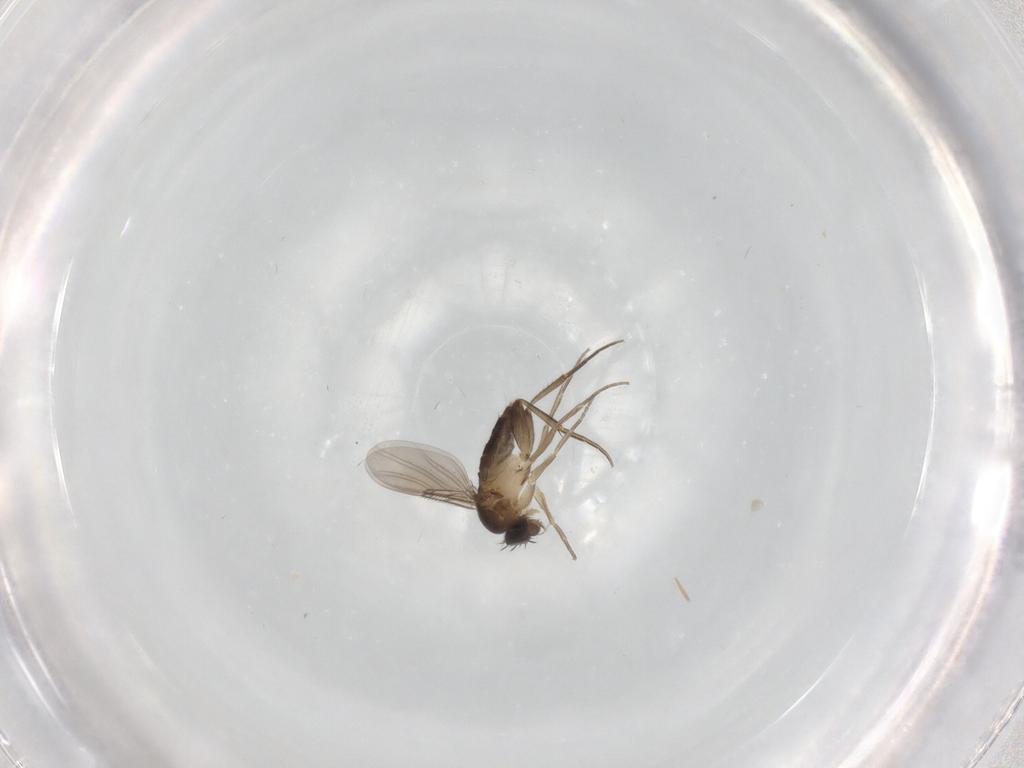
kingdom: Animalia
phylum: Arthropoda
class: Insecta
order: Diptera
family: Phoridae
